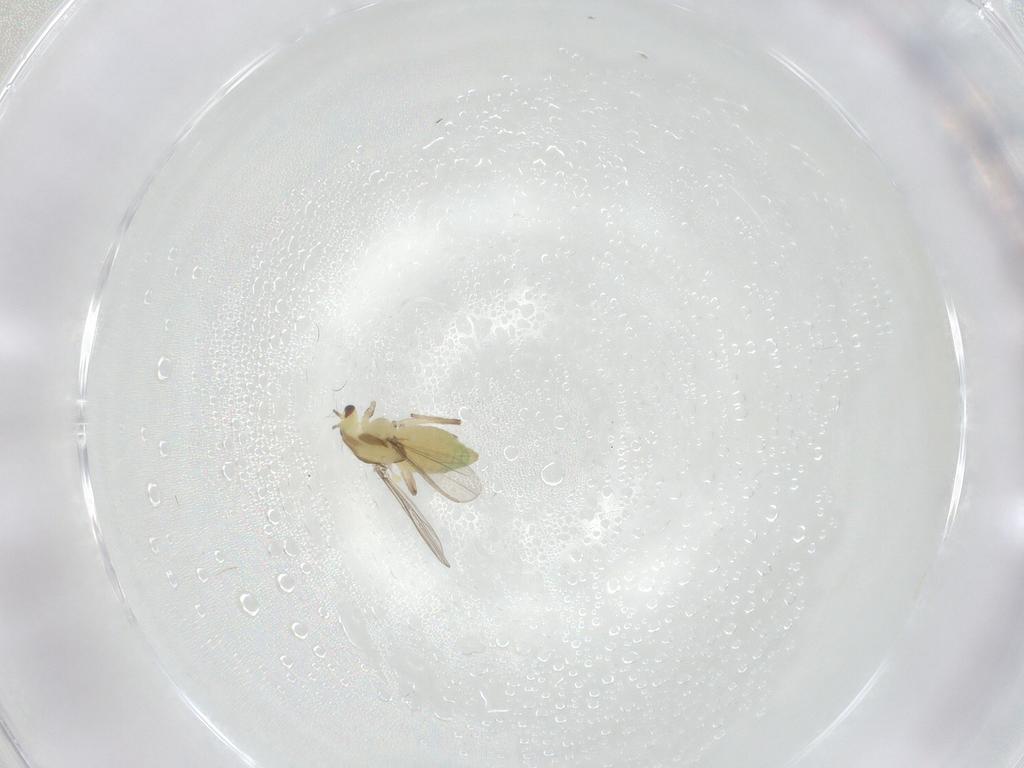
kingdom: Animalia
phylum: Arthropoda
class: Insecta
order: Diptera
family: Chironomidae
